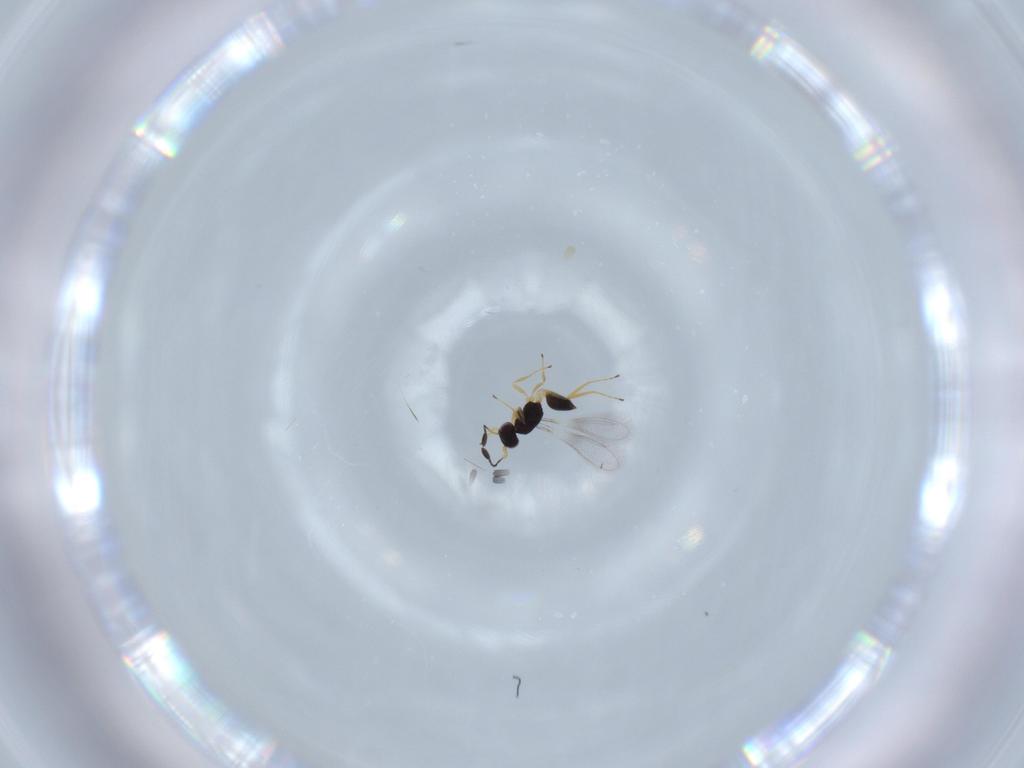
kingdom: Animalia
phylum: Arthropoda
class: Insecta
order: Hymenoptera
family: Mymaridae
